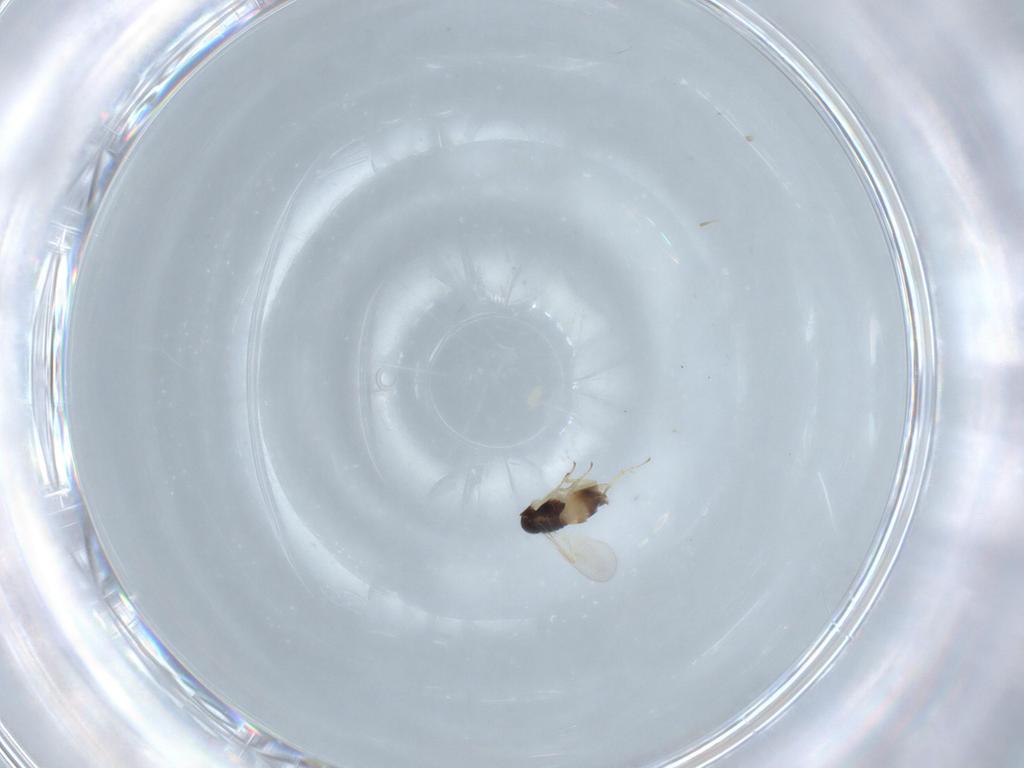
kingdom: Animalia
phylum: Arthropoda
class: Insecta
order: Hymenoptera
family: Aphelinidae
